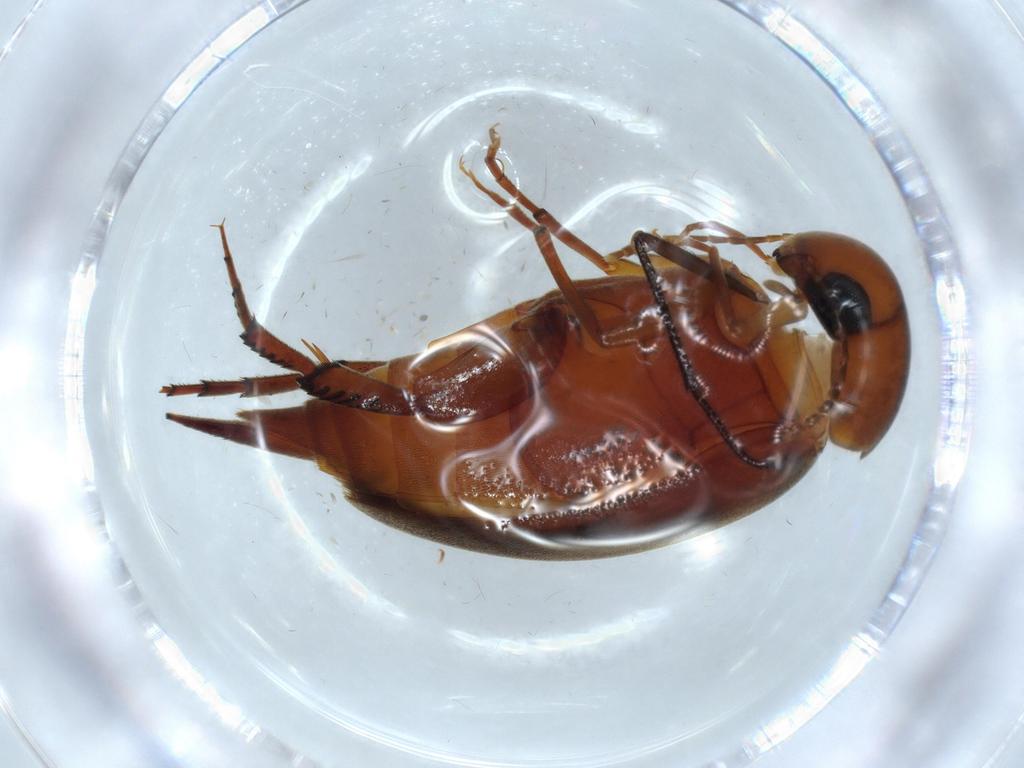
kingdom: Animalia
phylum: Arthropoda
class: Insecta
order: Coleoptera
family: Mordellidae
